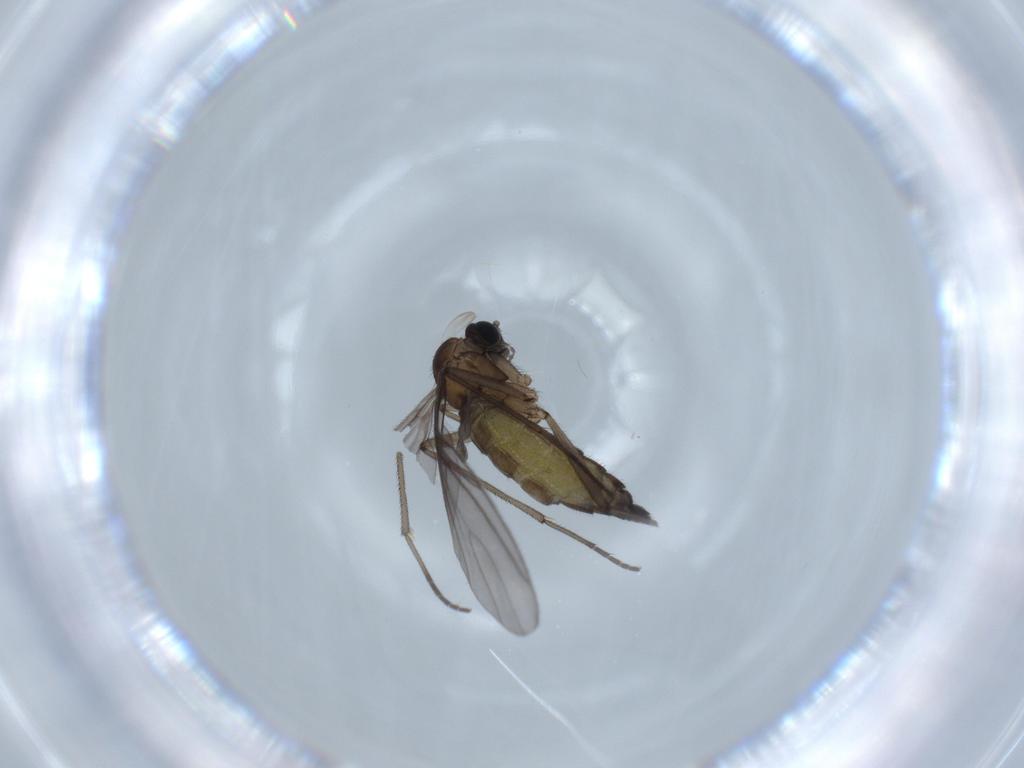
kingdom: Animalia
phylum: Arthropoda
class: Insecta
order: Diptera
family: Sciaridae
